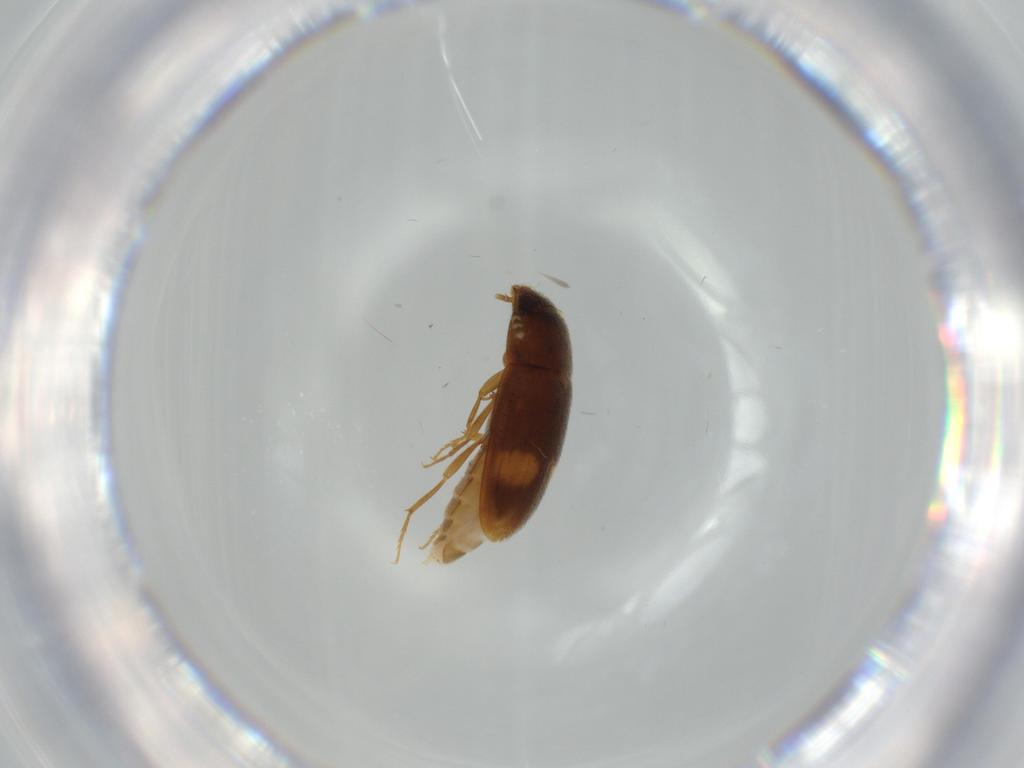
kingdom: Animalia
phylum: Arthropoda
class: Insecta
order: Coleoptera
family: Mycetophagidae
